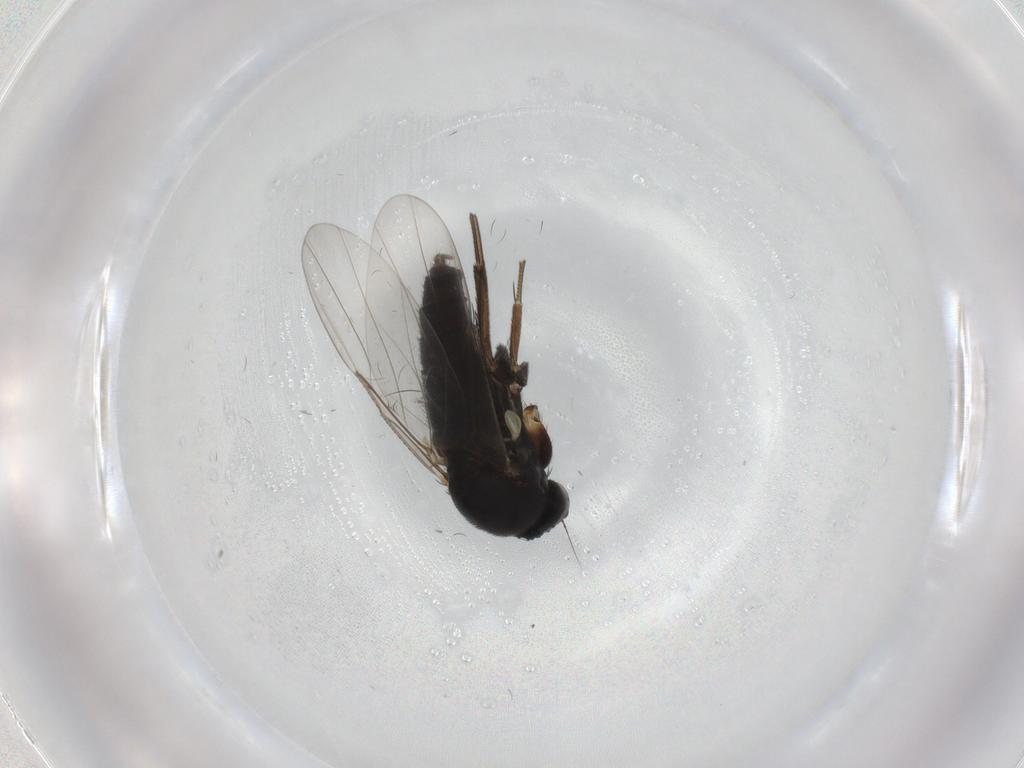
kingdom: Animalia
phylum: Arthropoda
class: Insecta
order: Diptera
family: Phoridae
